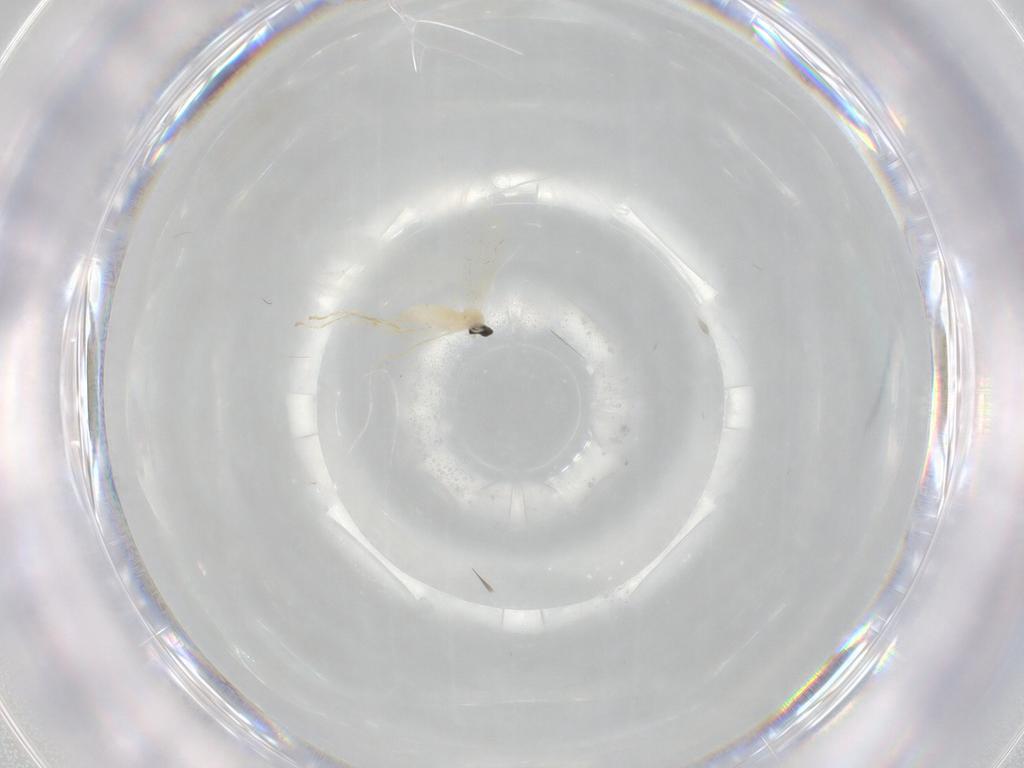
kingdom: Animalia
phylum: Arthropoda
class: Insecta
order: Diptera
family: Cecidomyiidae
